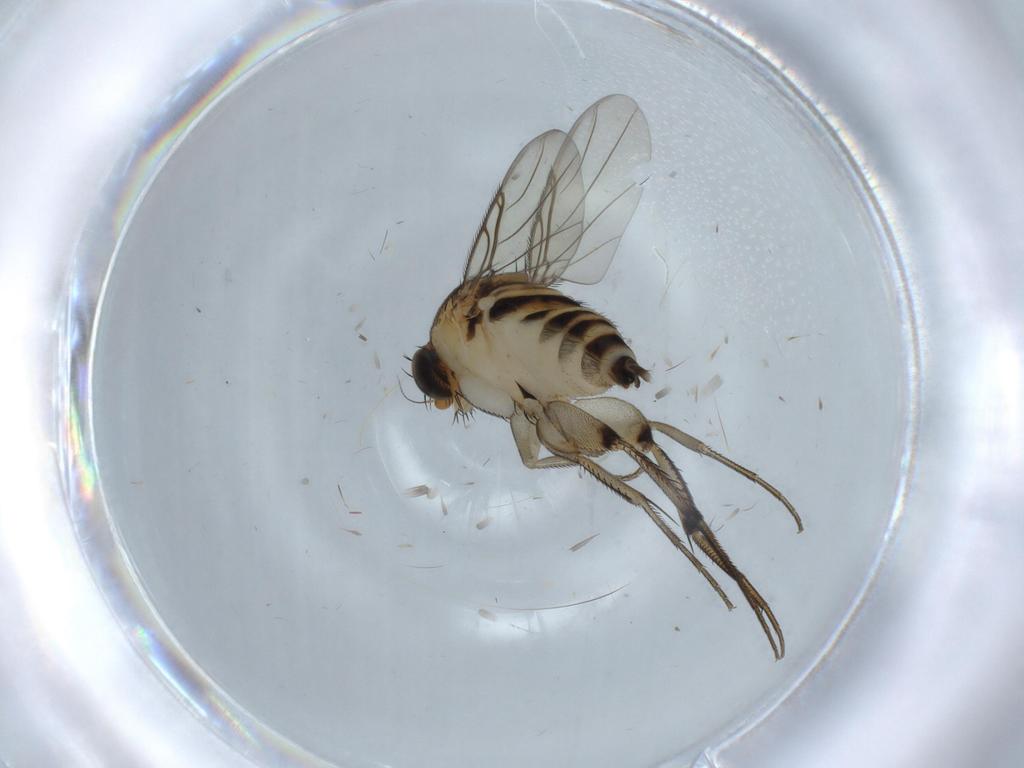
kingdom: Animalia
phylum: Arthropoda
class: Insecta
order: Diptera
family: Phoridae
